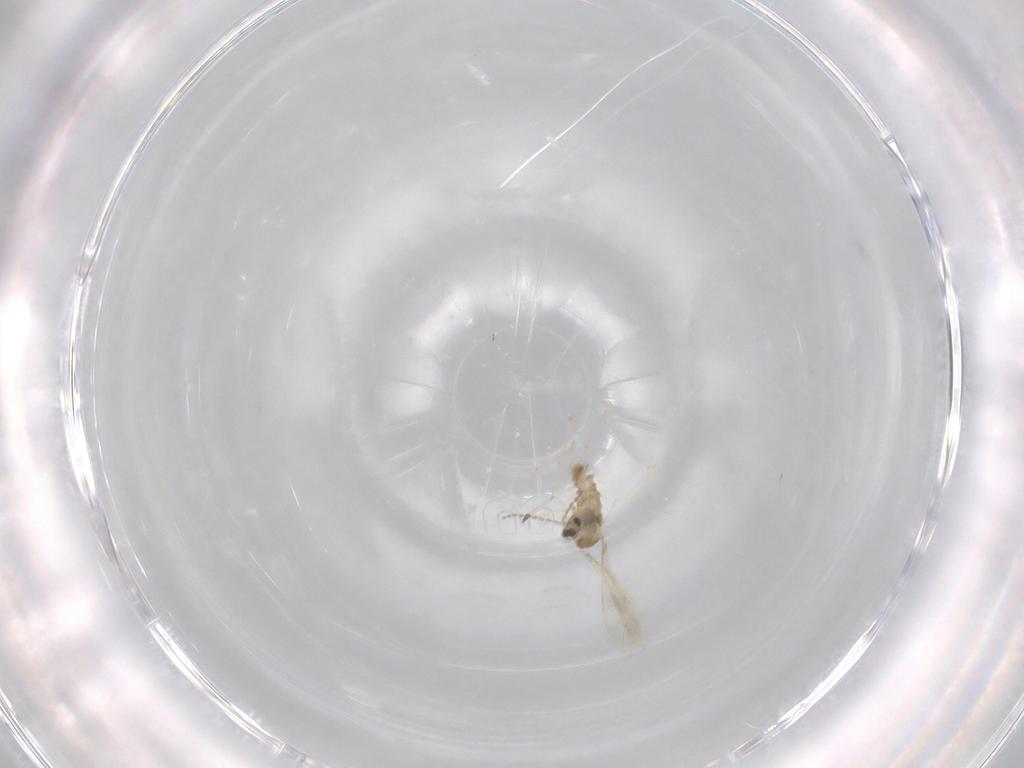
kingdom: Animalia
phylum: Arthropoda
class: Insecta
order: Diptera
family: Cecidomyiidae
